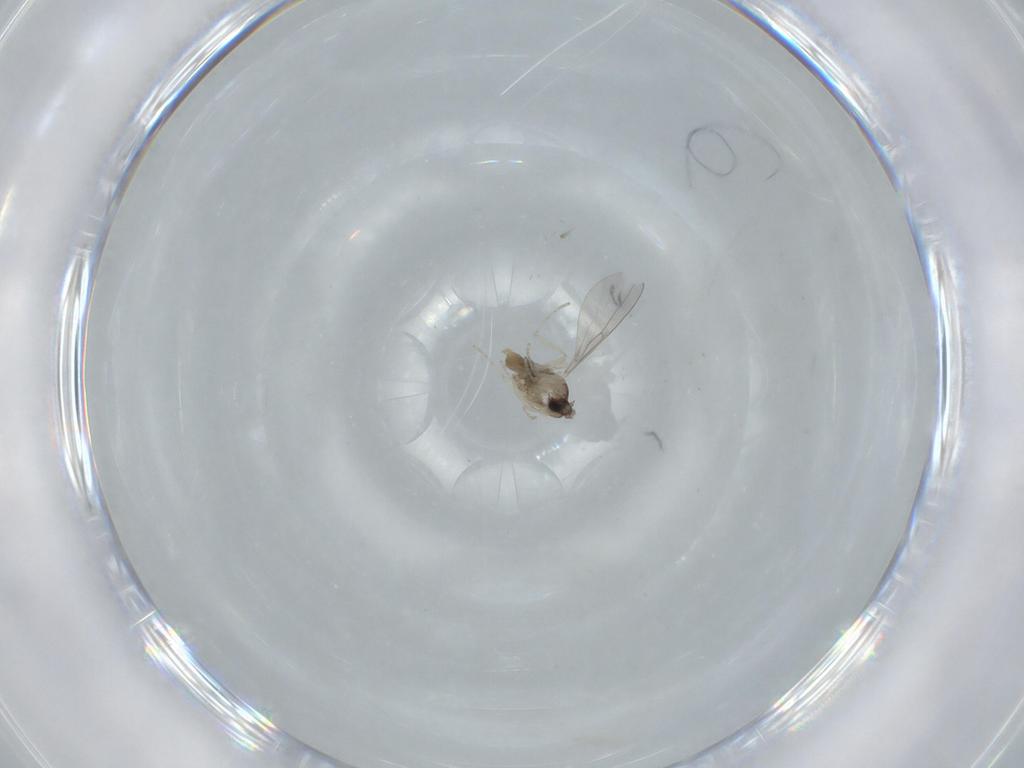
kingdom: Animalia
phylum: Arthropoda
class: Insecta
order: Diptera
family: Cecidomyiidae
